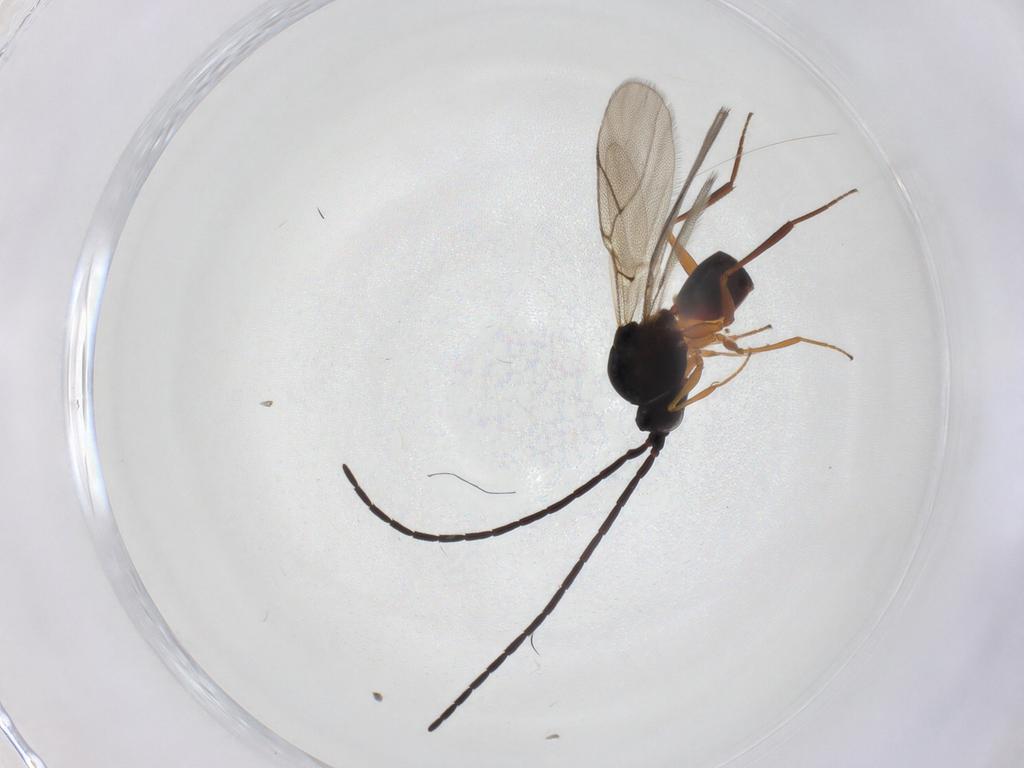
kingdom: Animalia
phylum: Arthropoda
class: Insecta
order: Hymenoptera
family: Figitidae
